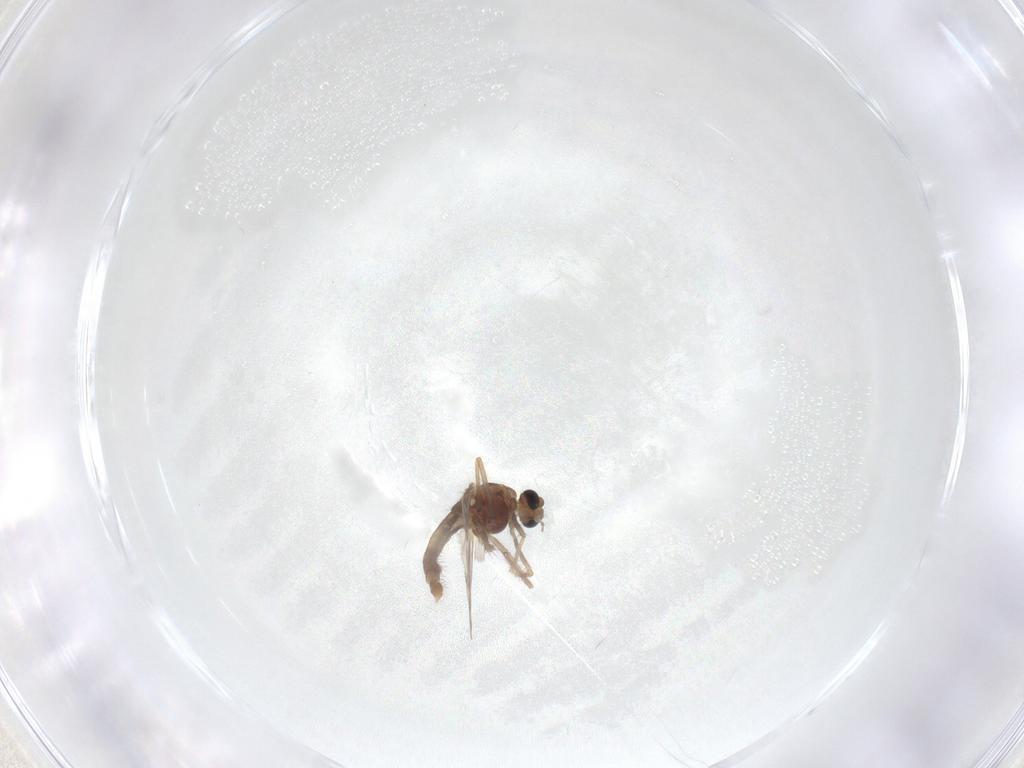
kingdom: Animalia
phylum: Arthropoda
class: Insecta
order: Diptera
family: Chironomidae
